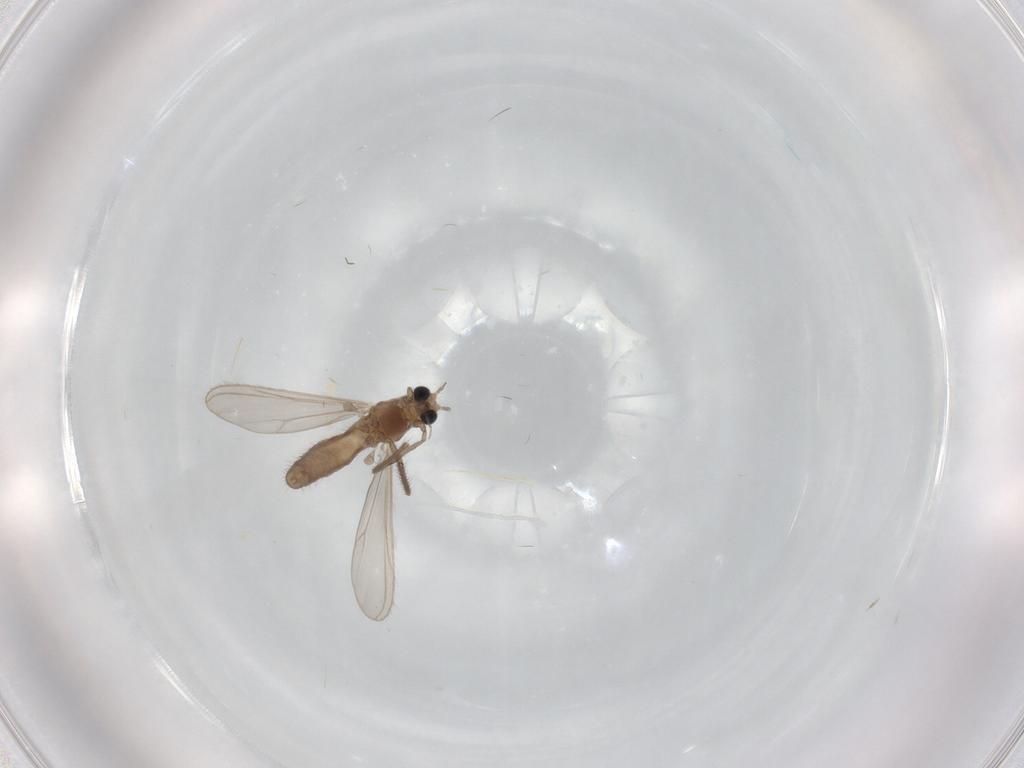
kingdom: Animalia
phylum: Arthropoda
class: Insecta
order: Diptera
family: Chironomidae
